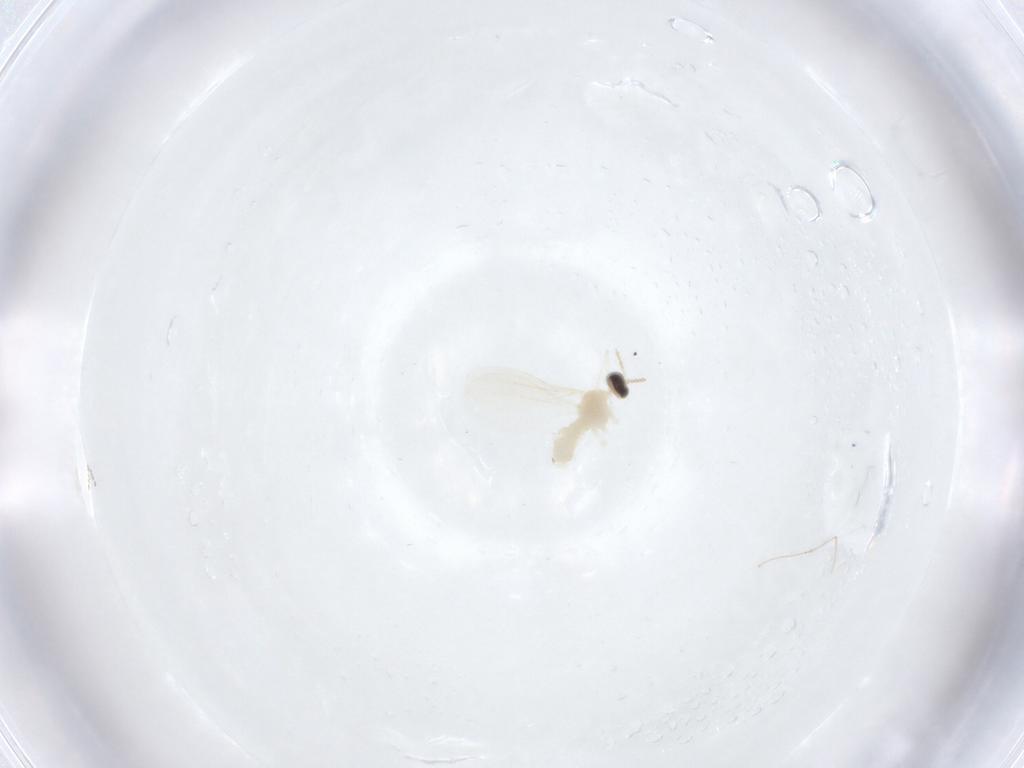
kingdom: Animalia
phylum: Arthropoda
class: Insecta
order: Diptera
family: Cecidomyiidae
